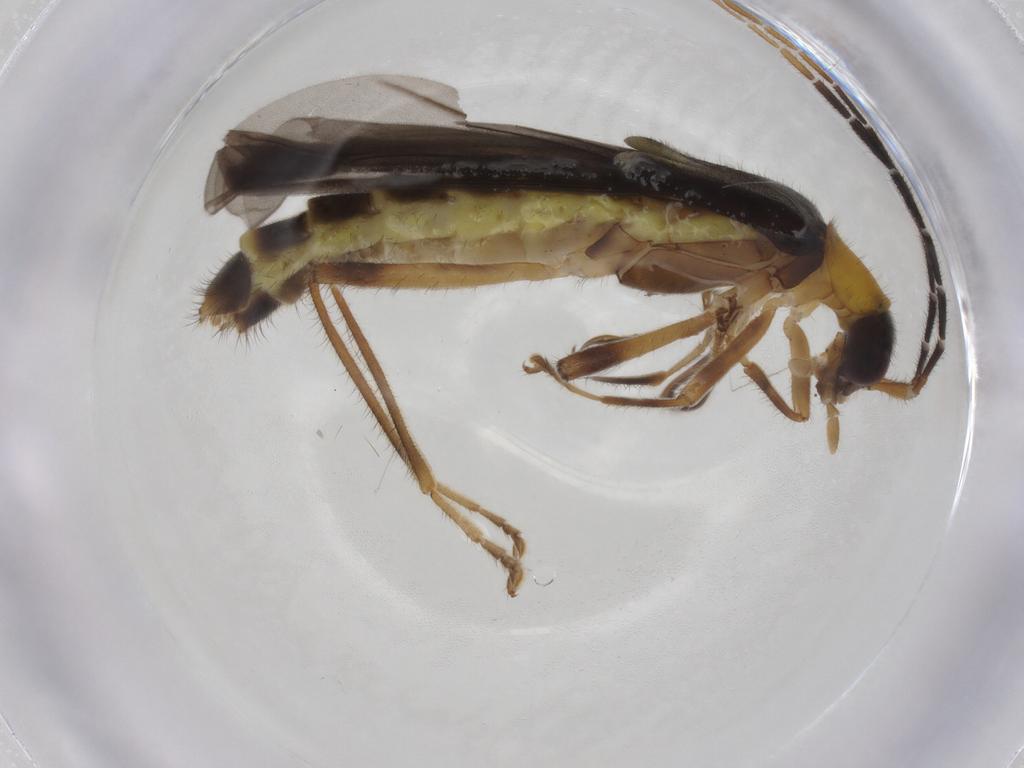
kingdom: Animalia
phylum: Arthropoda
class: Insecta
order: Coleoptera
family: Cantharidae
